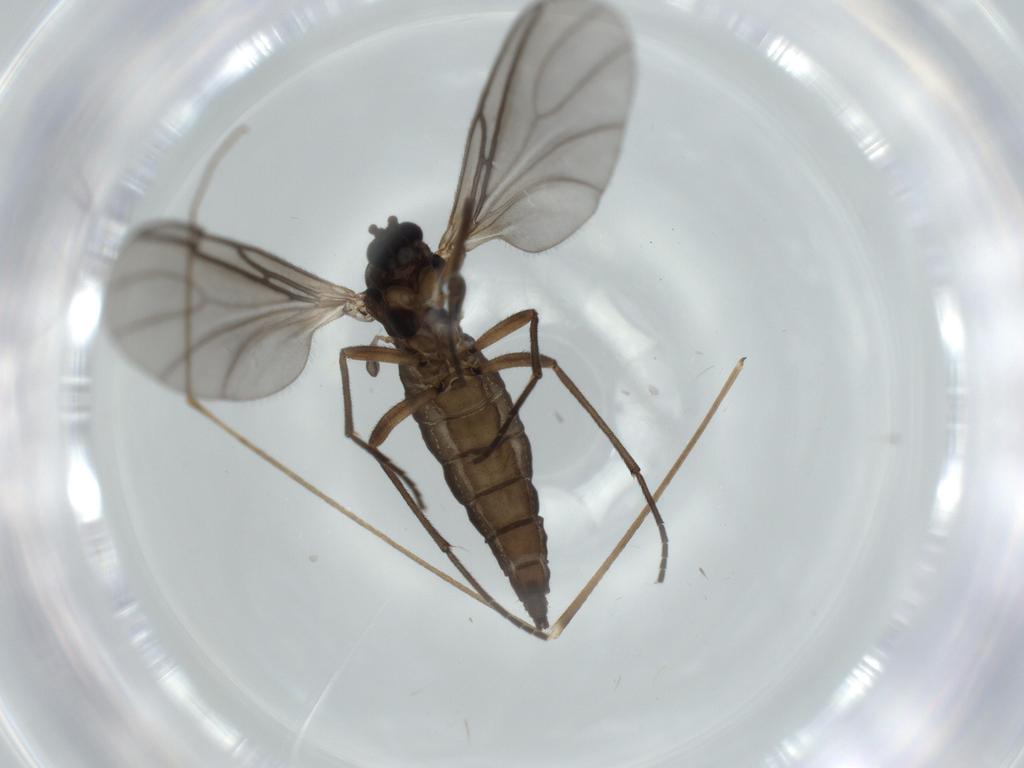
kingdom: Animalia
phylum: Arthropoda
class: Insecta
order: Diptera
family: Sciaridae
